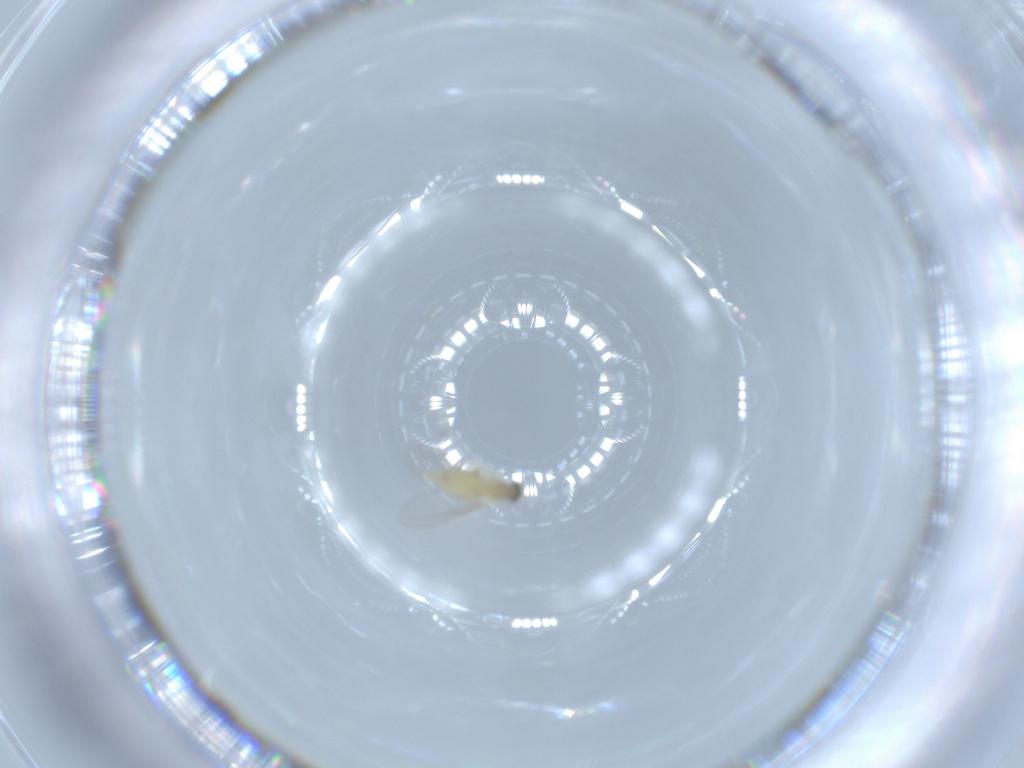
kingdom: Animalia
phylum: Arthropoda
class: Insecta
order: Diptera
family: Cecidomyiidae
